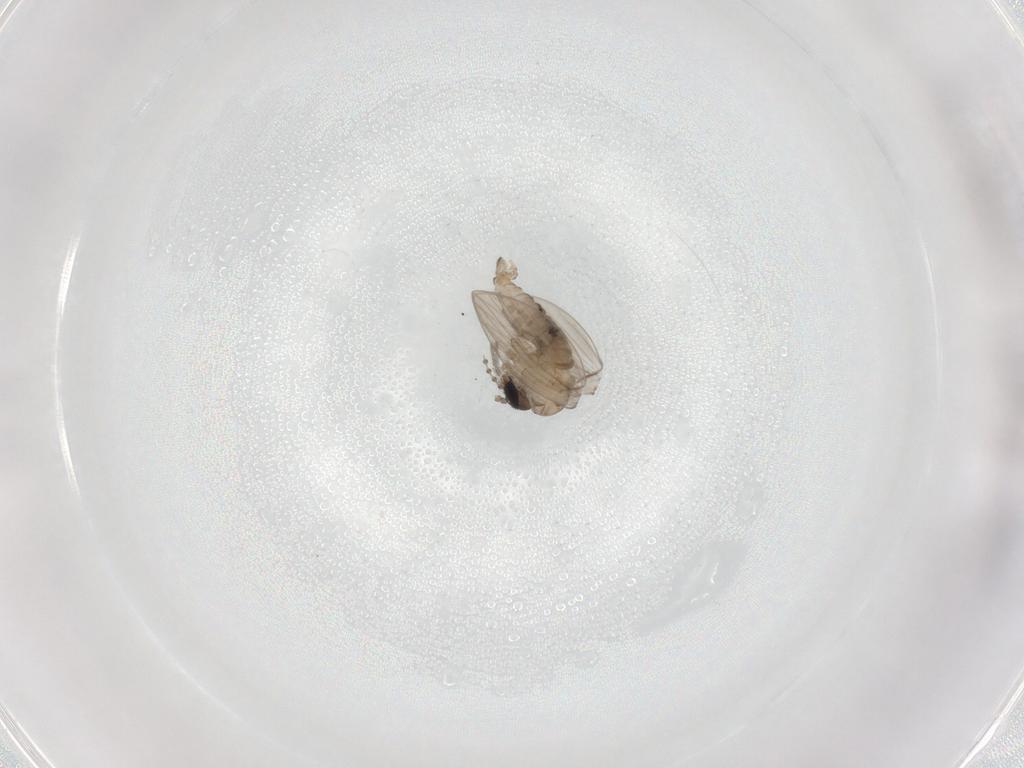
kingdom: Animalia
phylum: Arthropoda
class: Insecta
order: Diptera
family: Psychodidae
